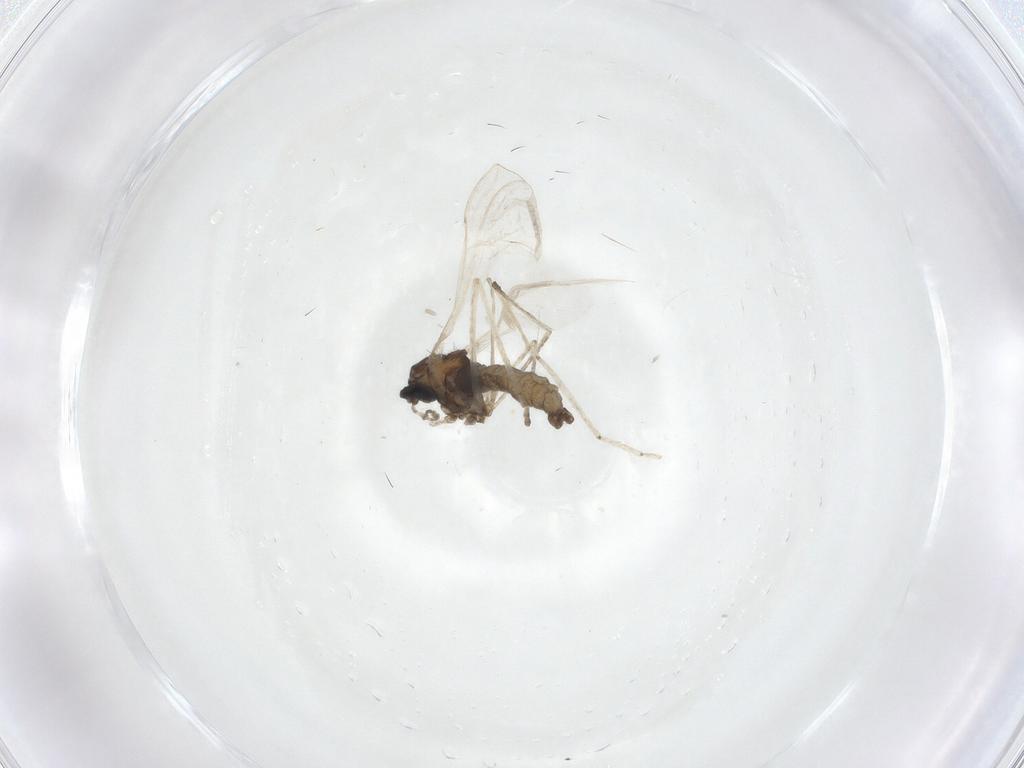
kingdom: Animalia
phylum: Arthropoda
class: Insecta
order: Diptera
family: Cecidomyiidae
